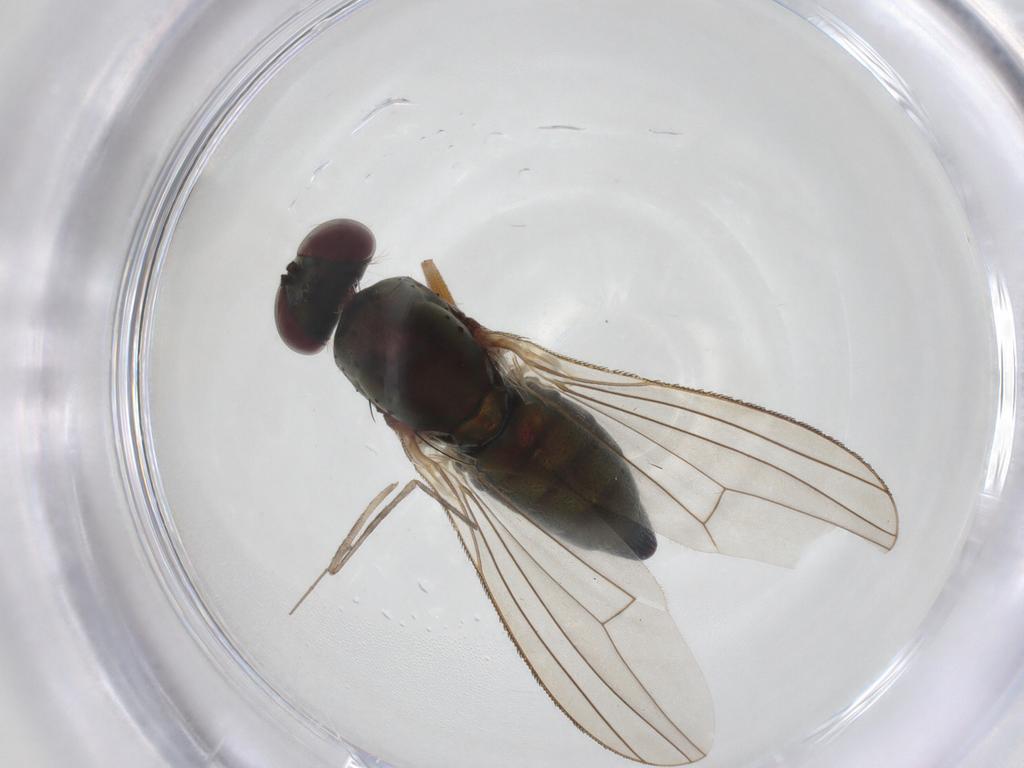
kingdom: Animalia
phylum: Arthropoda
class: Insecta
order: Diptera
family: Cecidomyiidae
